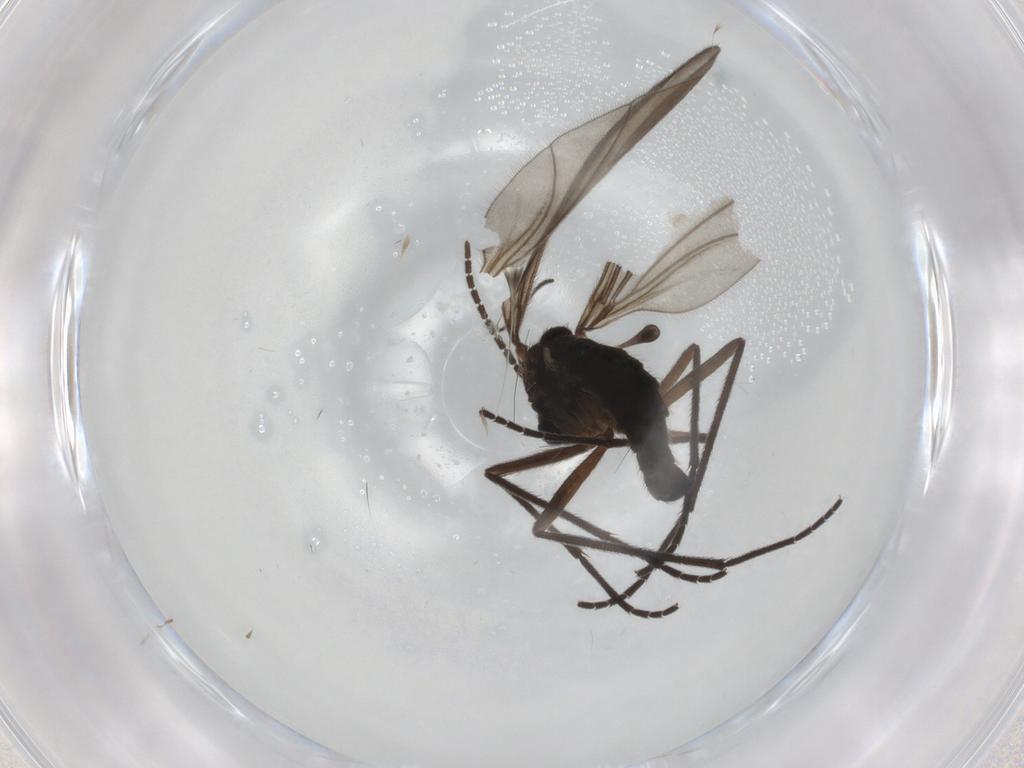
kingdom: Animalia
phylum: Arthropoda
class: Insecta
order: Diptera
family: Sciaridae
